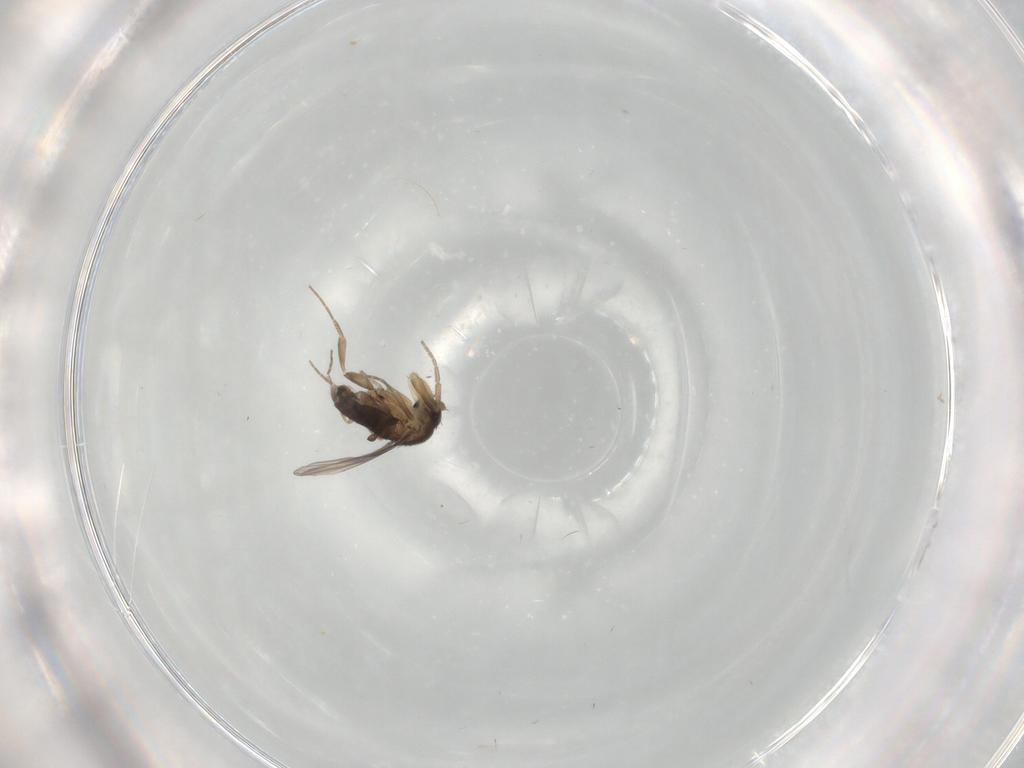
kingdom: Animalia
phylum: Arthropoda
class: Insecta
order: Diptera
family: Phoridae
